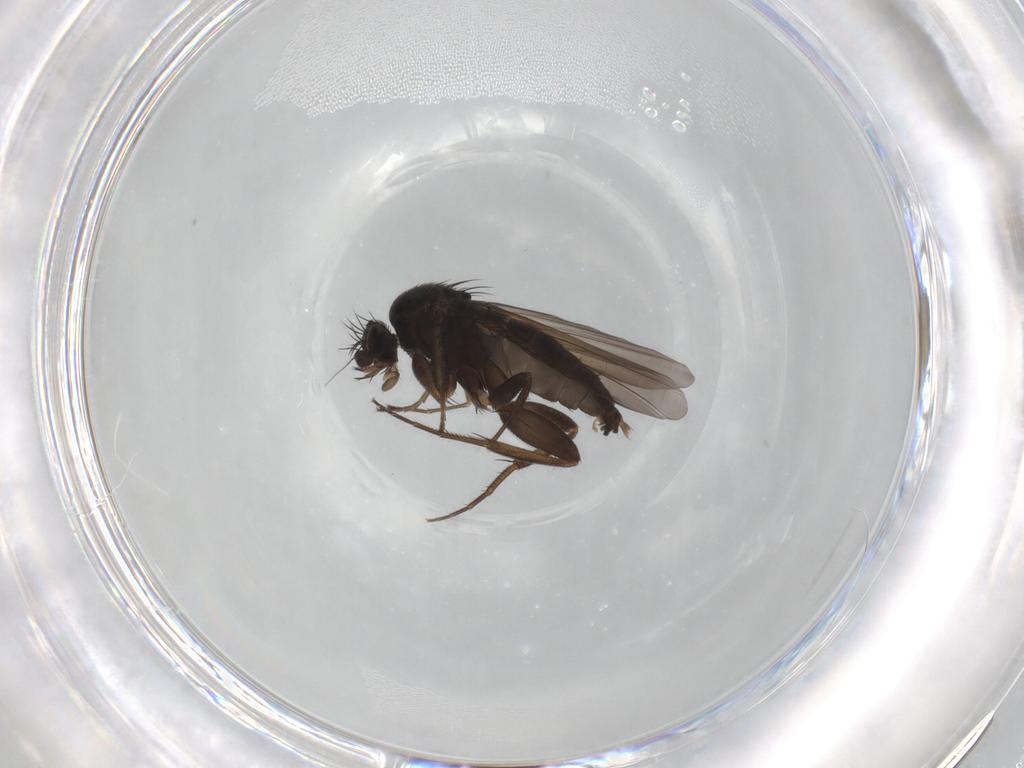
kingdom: Animalia
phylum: Arthropoda
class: Insecta
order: Diptera
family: Phoridae
